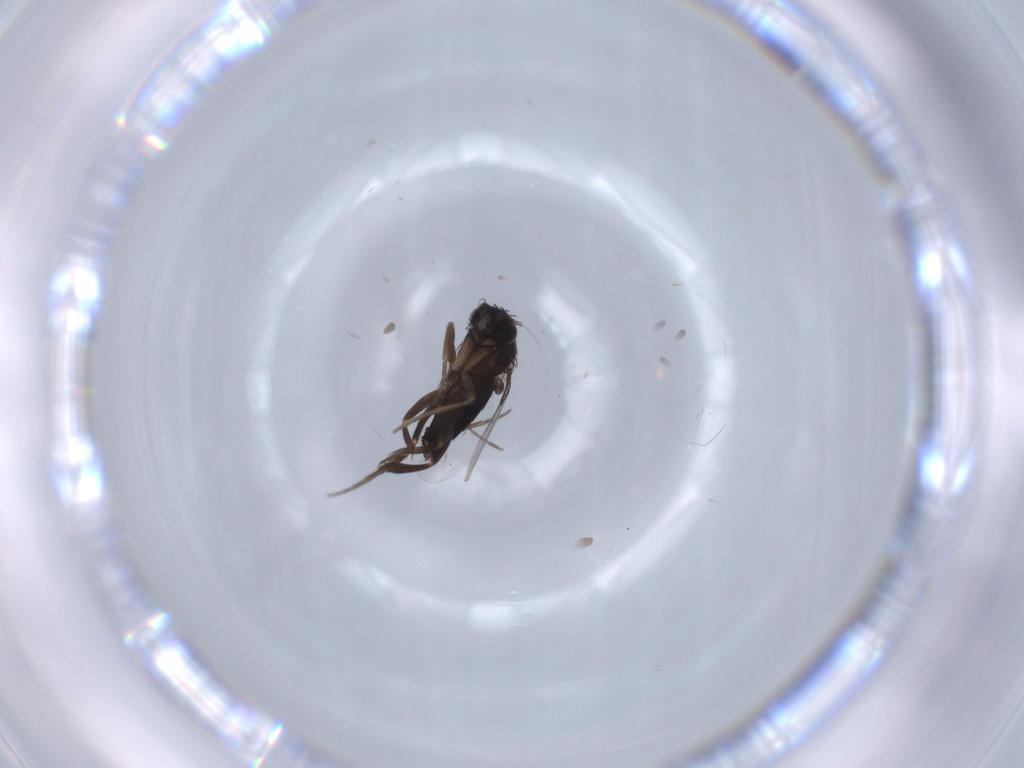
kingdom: Animalia
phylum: Arthropoda
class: Insecta
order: Diptera
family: Phoridae
